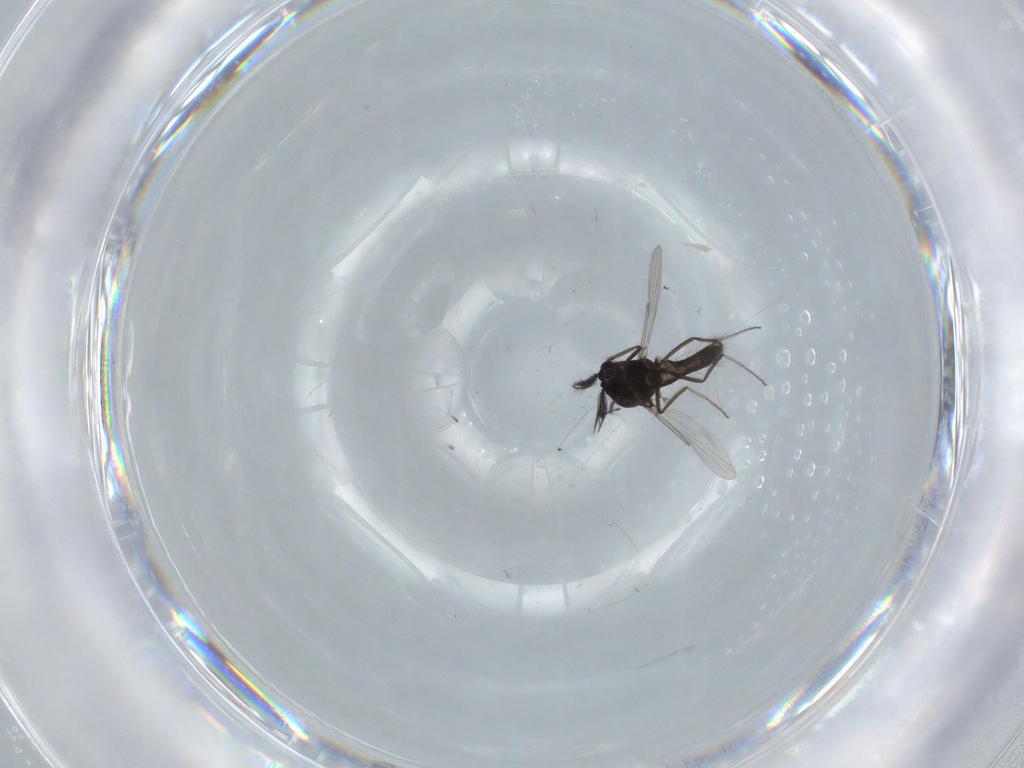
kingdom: Animalia
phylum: Arthropoda
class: Insecta
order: Diptera
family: Ceratopogonidae
